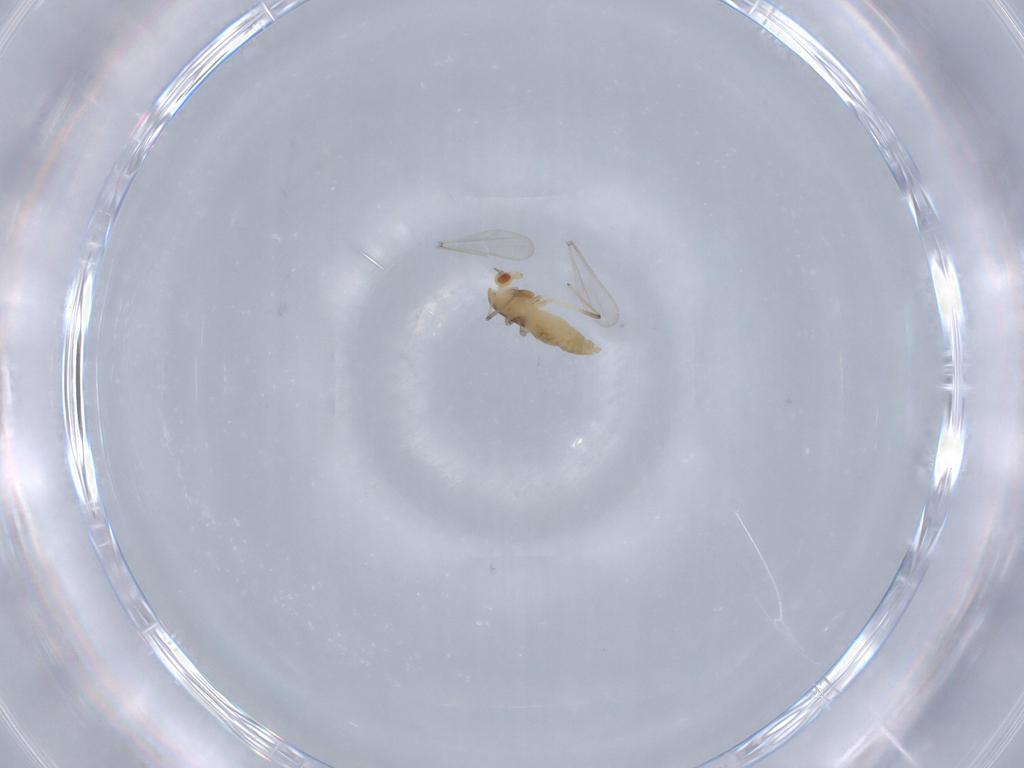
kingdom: Animalia
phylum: Arthropoda
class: Insecta
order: Diptera
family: Chironomidae
